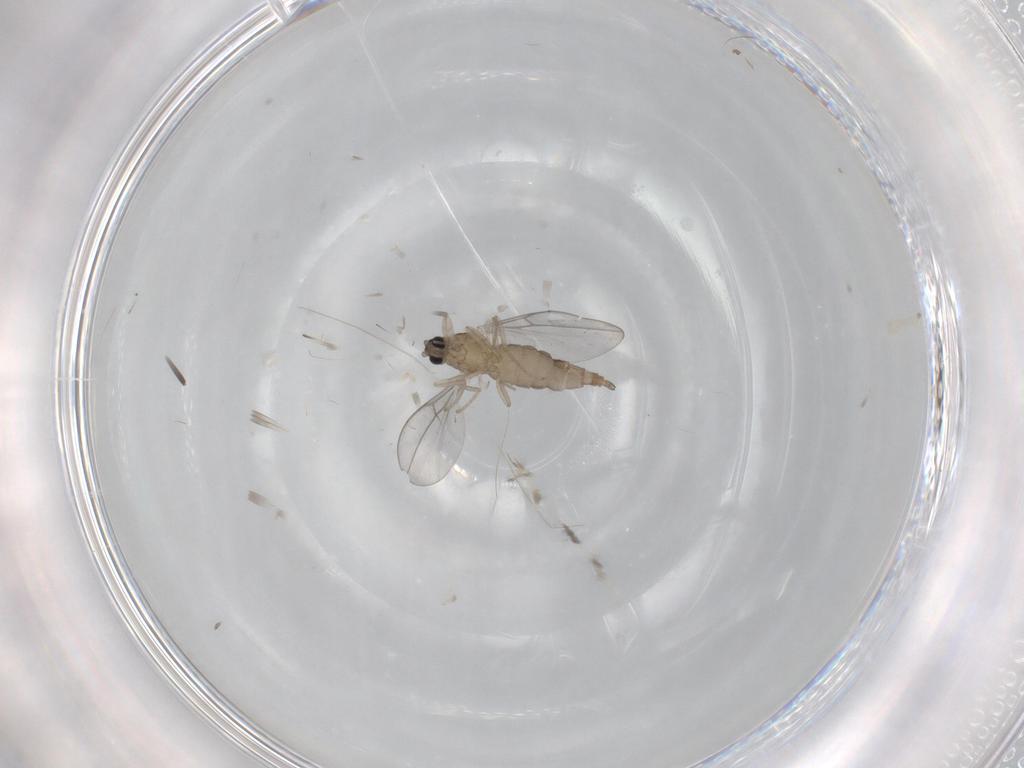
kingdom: Animalia
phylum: Arthropoda
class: Insecta
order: Diptera
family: Cecidomyiidae
